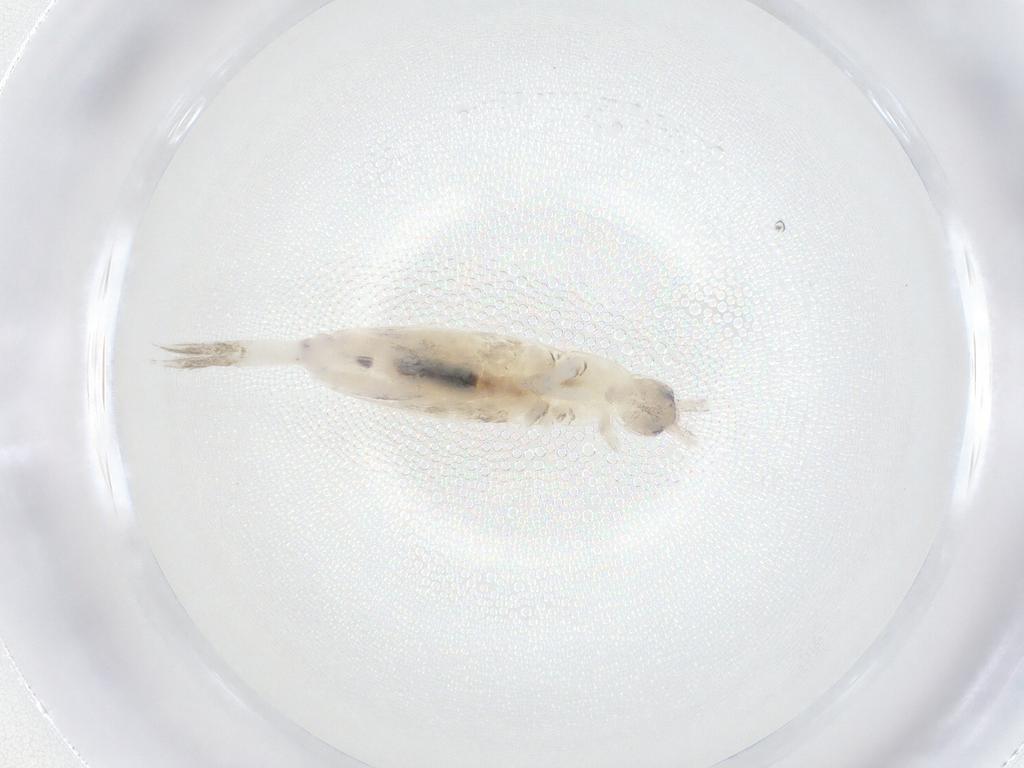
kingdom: Animalia
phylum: Arthropoda
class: Collembola
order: Entomobryomorpha
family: Entomobryidae
